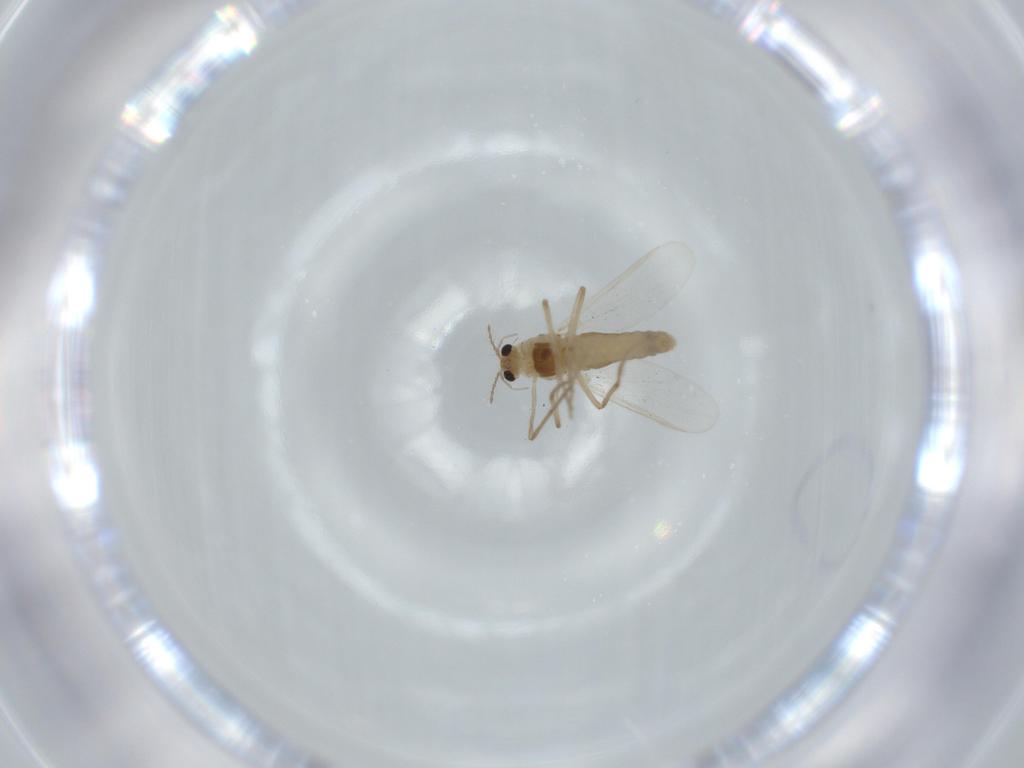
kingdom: Animalia
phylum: Arthropoda
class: Insecta
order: Diptera
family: Chironomidae
